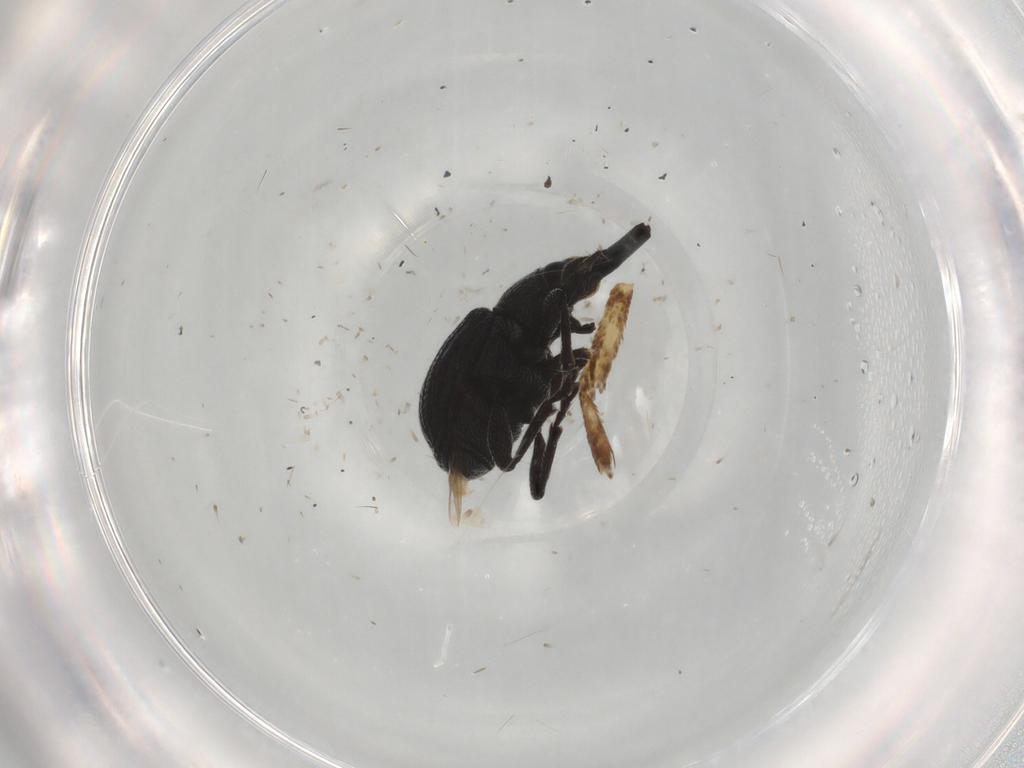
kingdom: Animalia
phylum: Arthropoda
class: Insecta
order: Coleoptera
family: Brentidae
